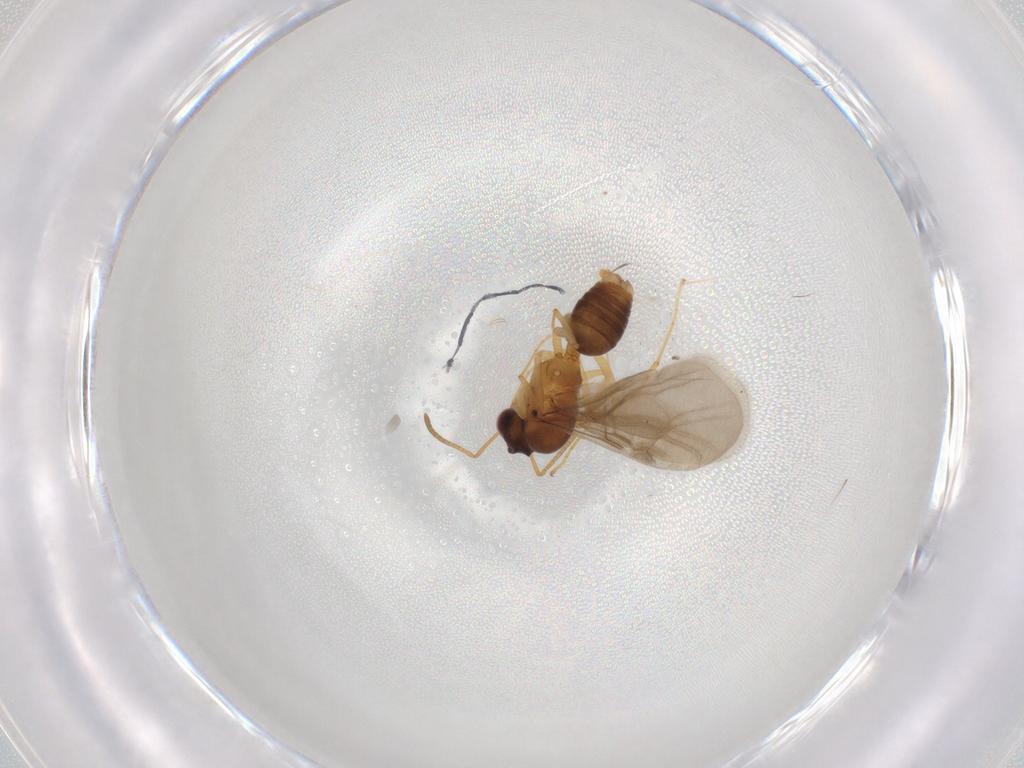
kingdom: Animalia
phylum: Arthropoda
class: Insecta
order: Hymenoptera
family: Formicidae
